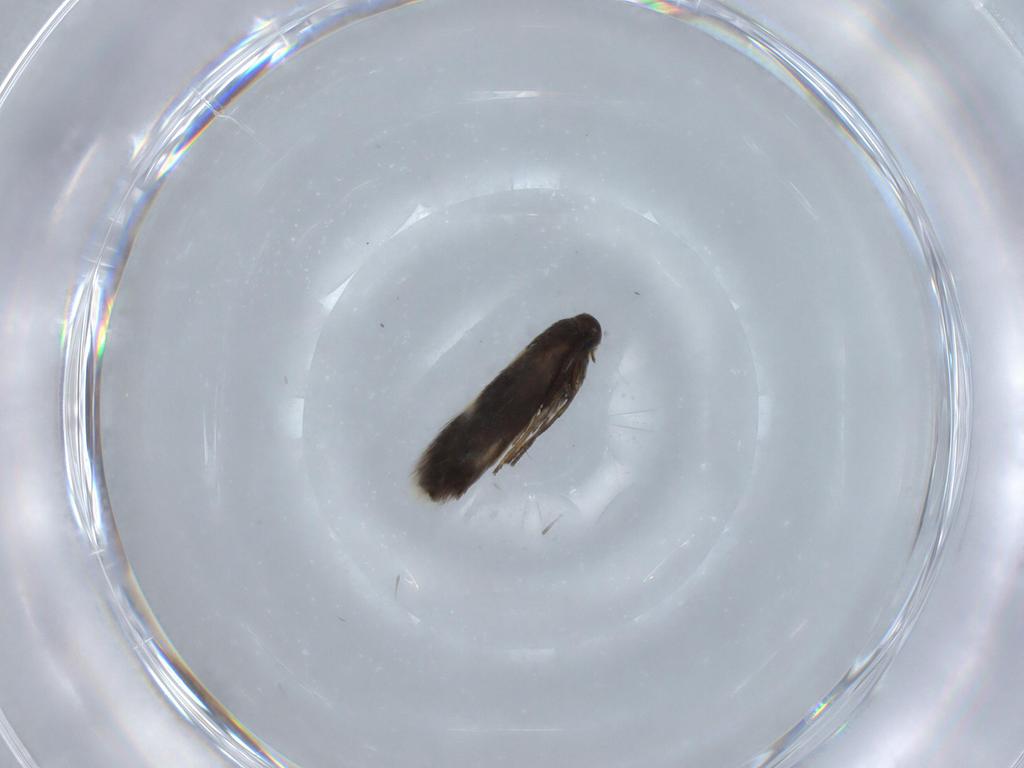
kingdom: Animalia
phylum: Arthropoda
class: Insecta
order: Lepidoptera
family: Heliozelidae
